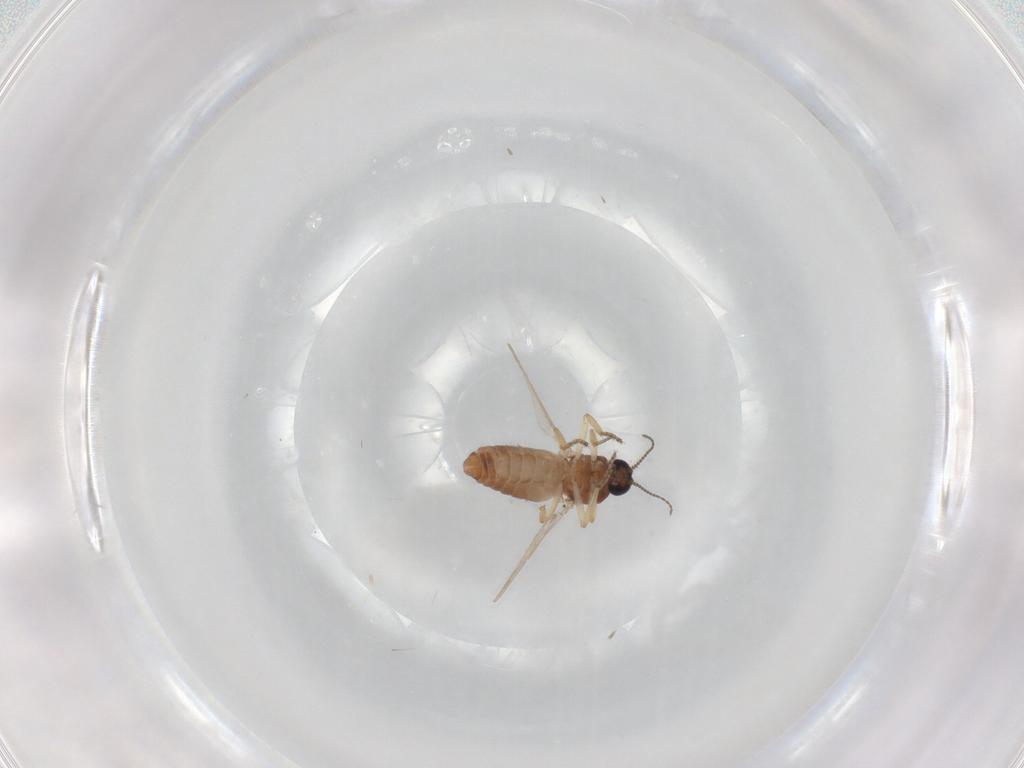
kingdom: Animalia
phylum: Arthropoda
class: Insecta
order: Diptera
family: Ceratopogonidae
